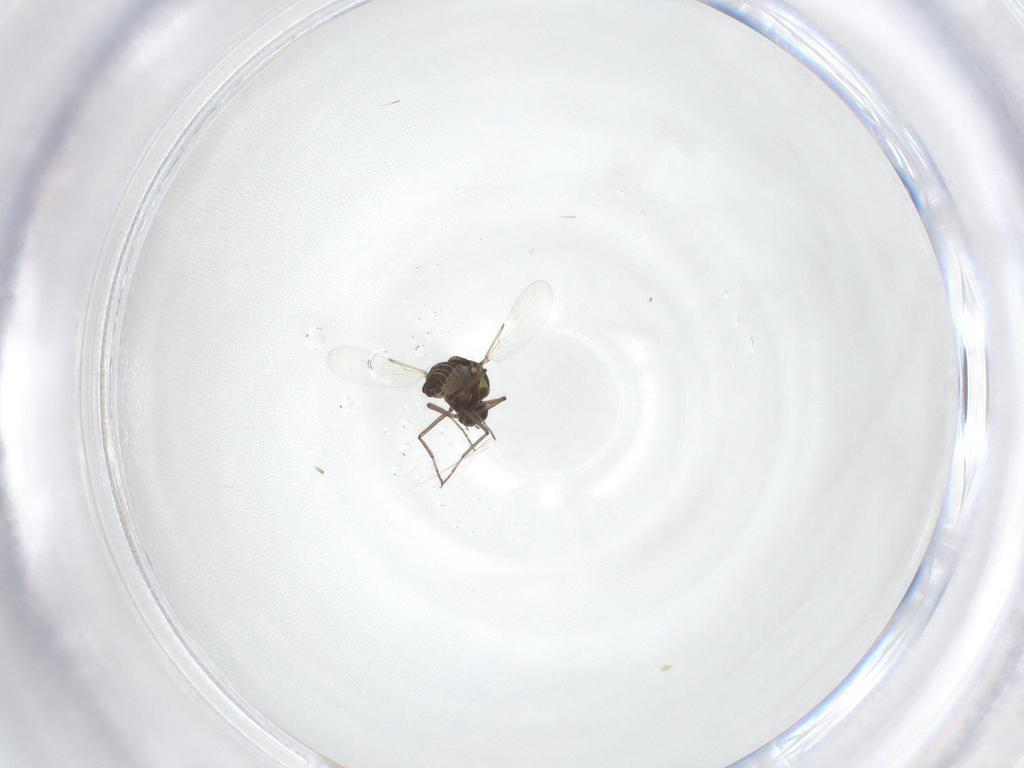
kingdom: Animalia
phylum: Arthropoda
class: Insecta
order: Diptera
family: Ceratopogonidae
